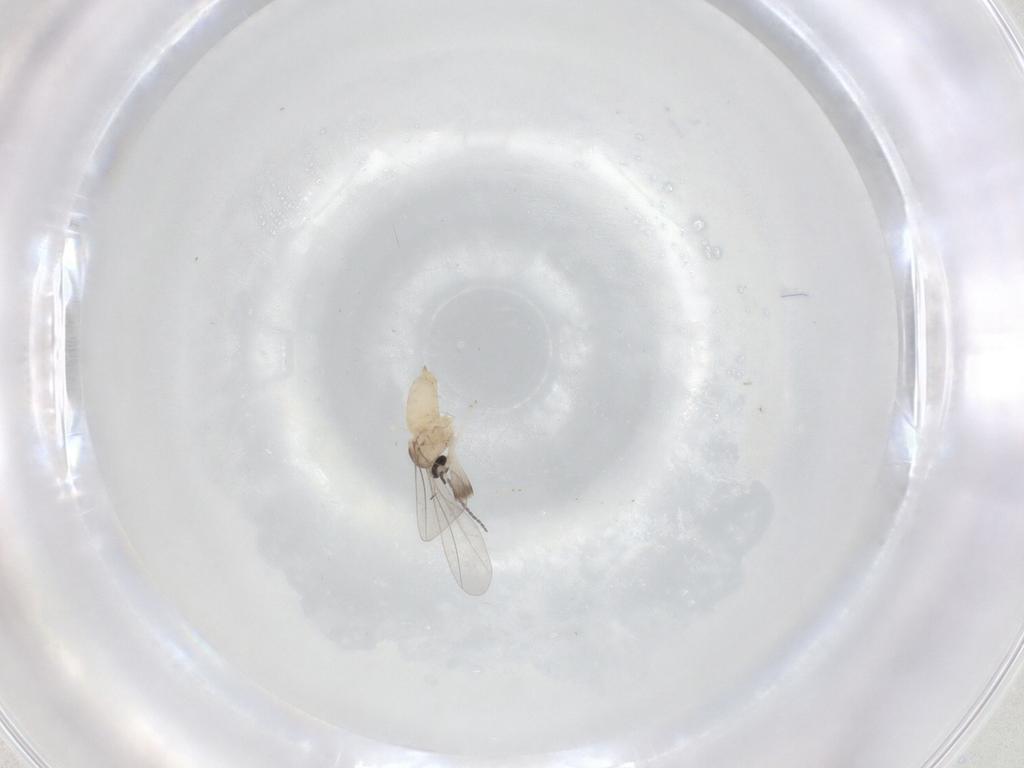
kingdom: Animalia
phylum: Arthropoda
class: Insecta
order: Diptera
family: Cecidomyiidae
